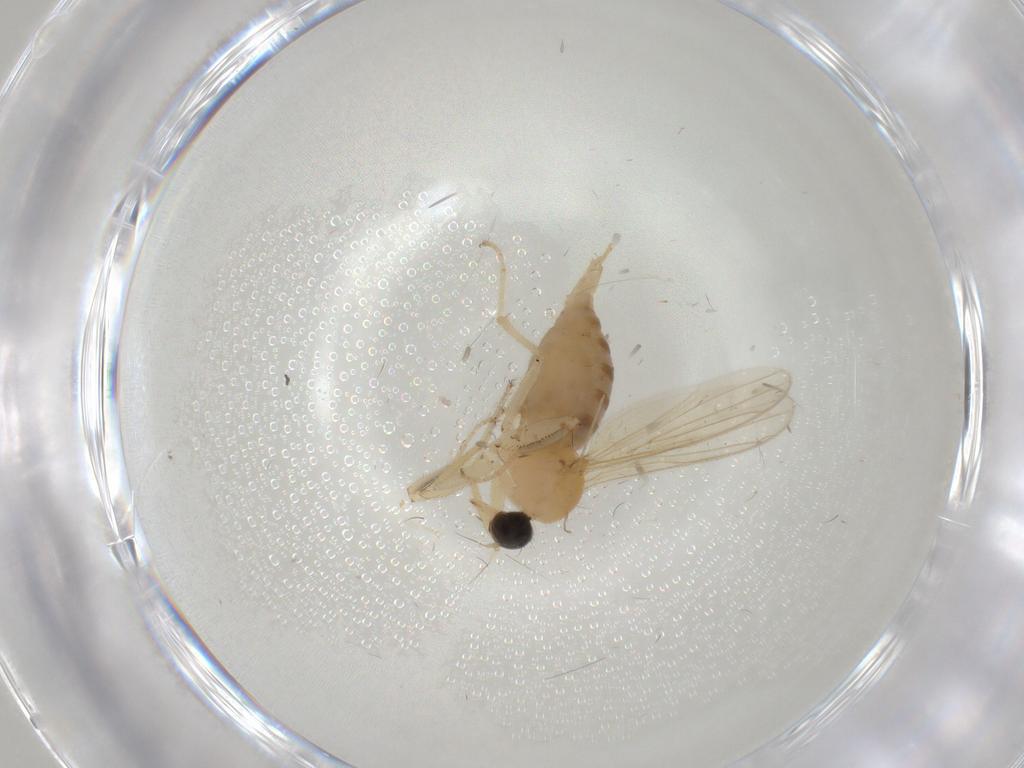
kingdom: Animalia
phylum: Arthropoda
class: Insecta
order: Diptera
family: Hybotidae
